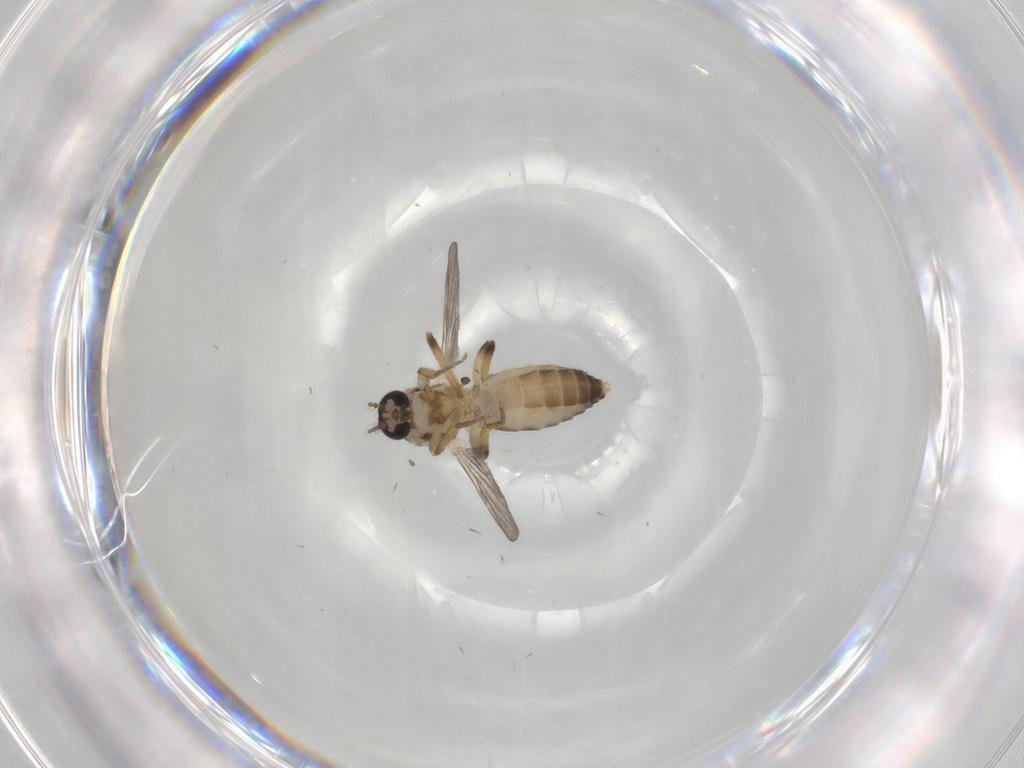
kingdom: Animalia
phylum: Arthropoda
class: Insecta
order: Diptera
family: Ceratopogonidae
